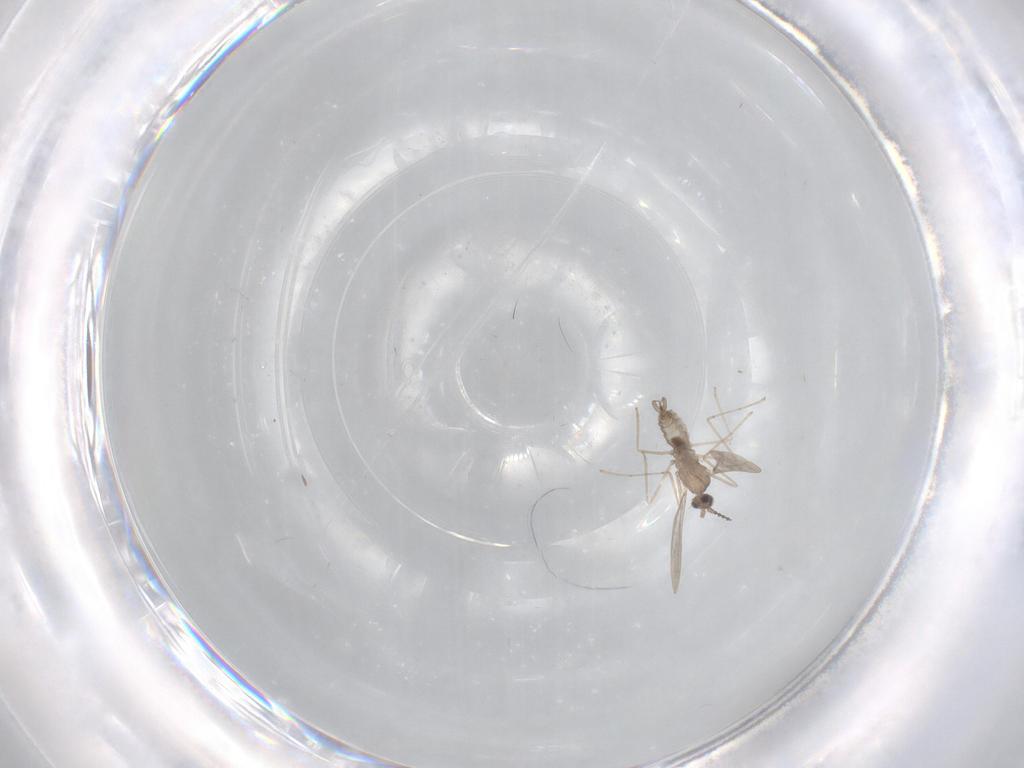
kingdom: Animalia
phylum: Arthropoda
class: Insecta
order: Diptera
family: Cecidomyiidae
